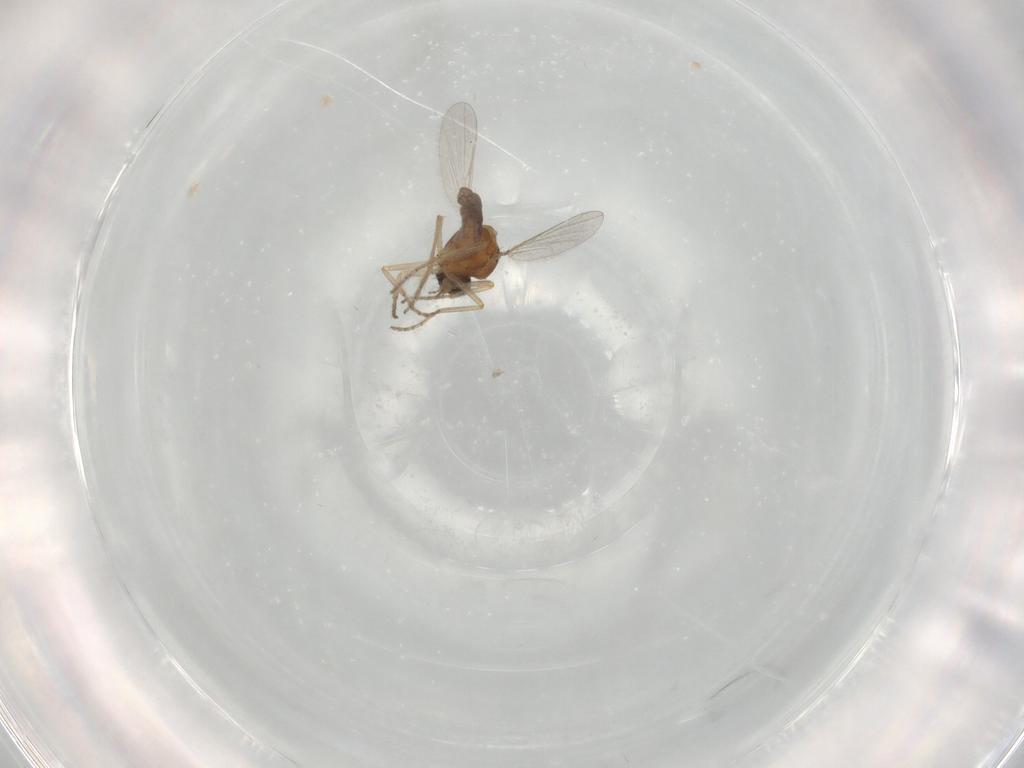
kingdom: Animalia
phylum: Arthropoda
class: Insecta
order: Diptera
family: Ceratopogonidae
